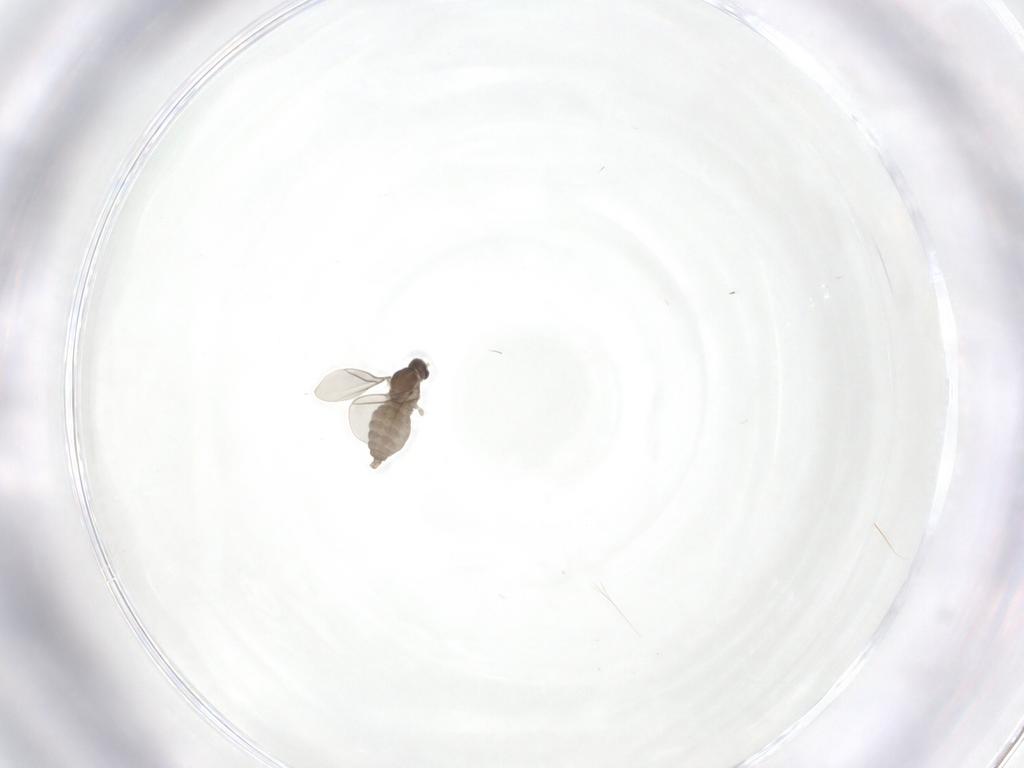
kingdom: Animalia
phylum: Arthropoda
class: Insecta
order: Diptera
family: Cecidomyiidae
